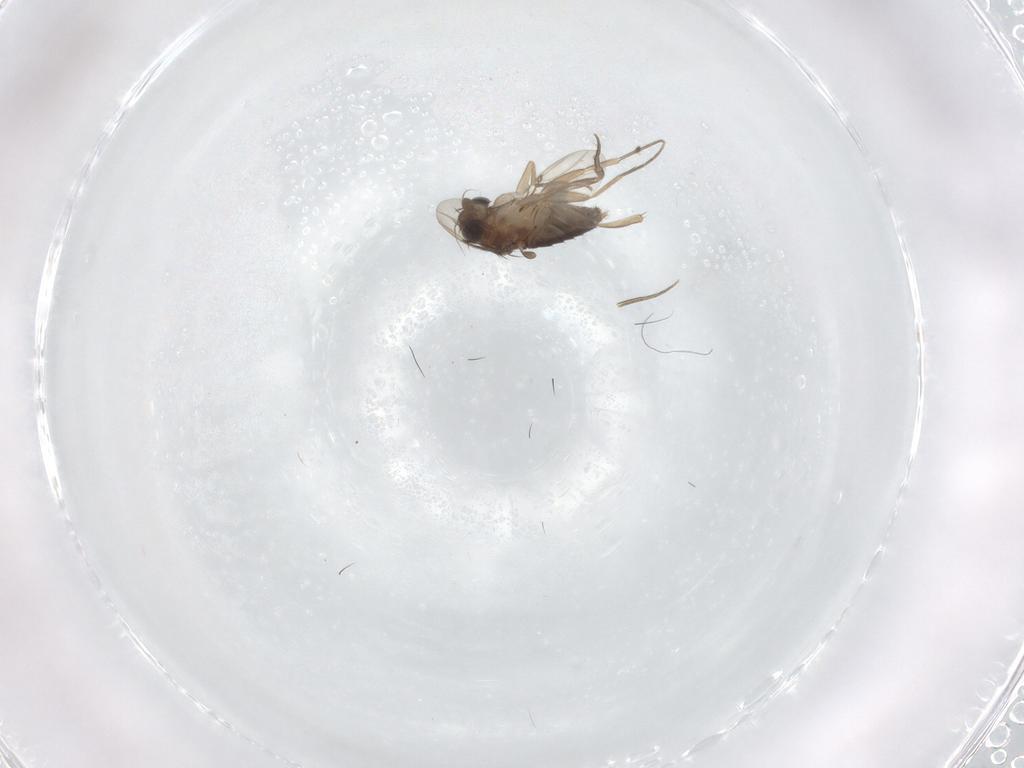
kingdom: Animalia
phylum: Arthropoda
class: Insecta
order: Diptera
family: Phoridae
